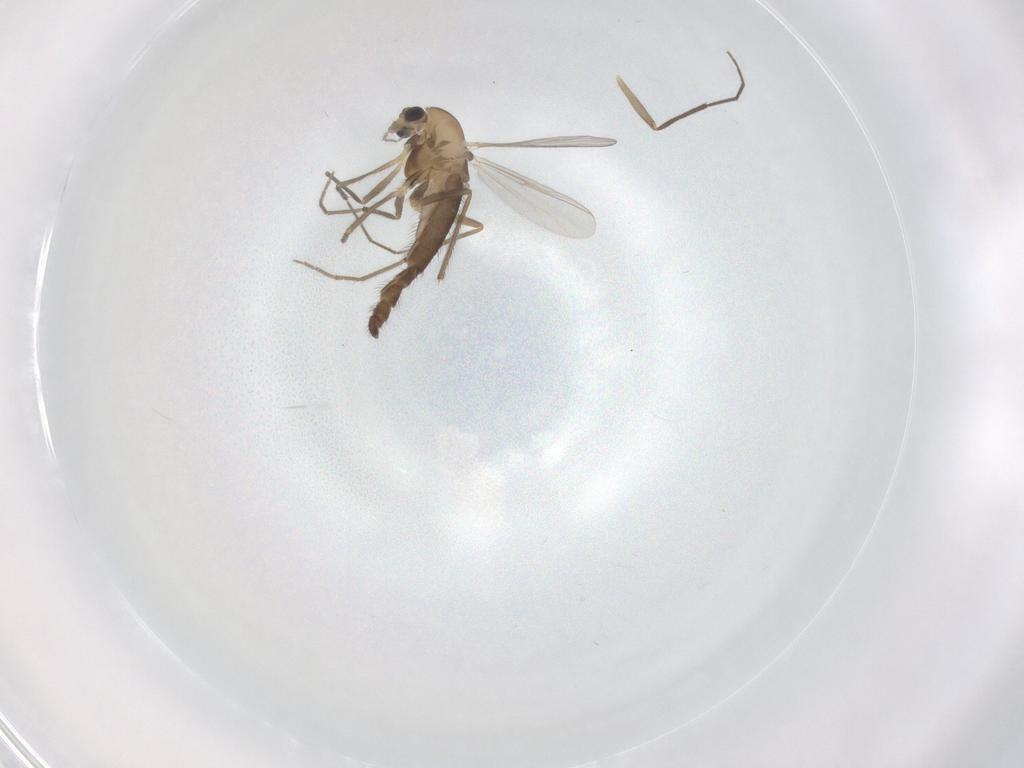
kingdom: Animalia
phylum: Arthropoda
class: Insecta
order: Diptera
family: Chironomidae
